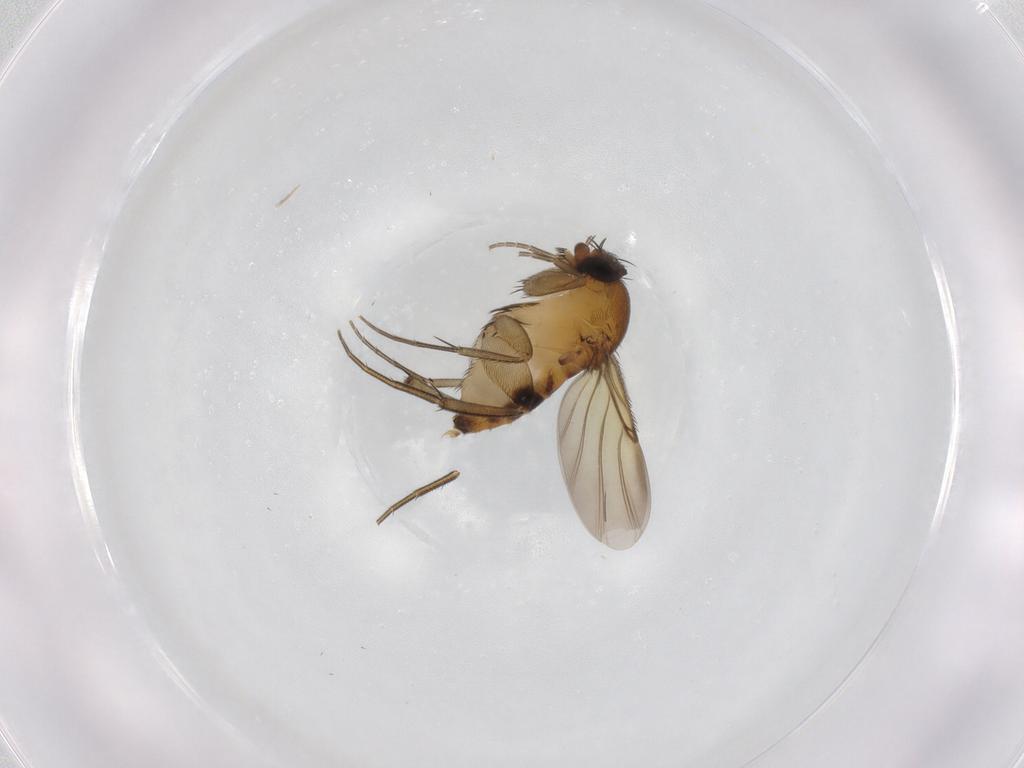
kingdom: Animalia
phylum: Arthropoda
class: Insecta
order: Diptera
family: Phoridae
